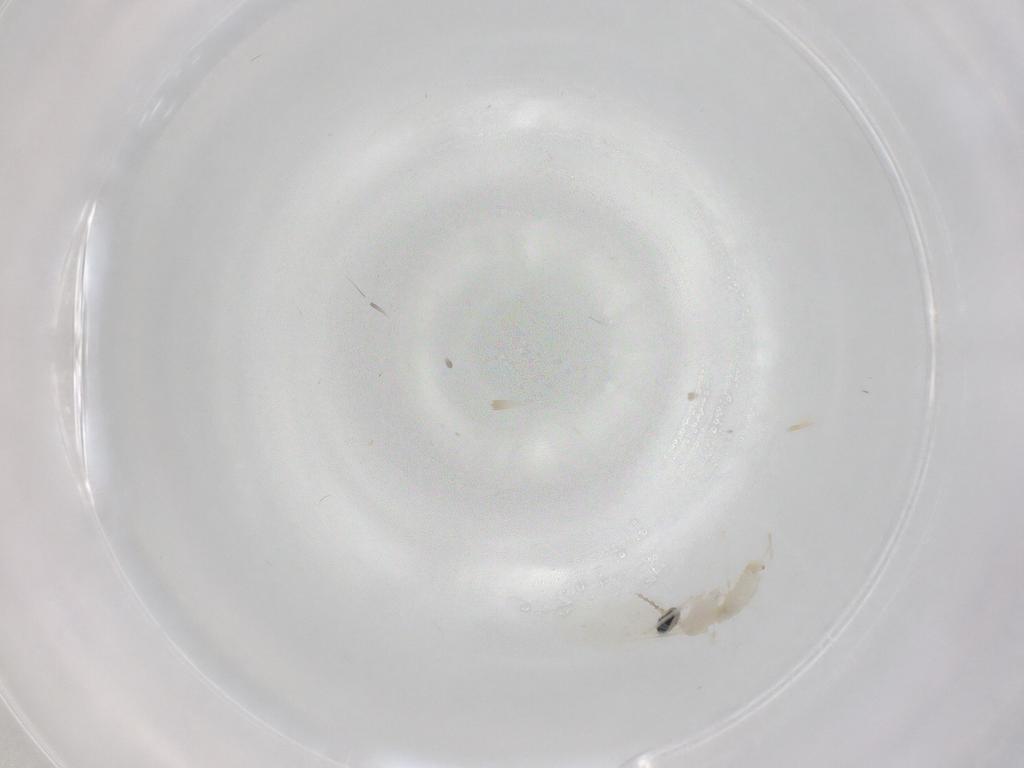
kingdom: Animalia
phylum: Arthropoda
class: Insecta
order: Diptera
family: Cecidomyiidae
